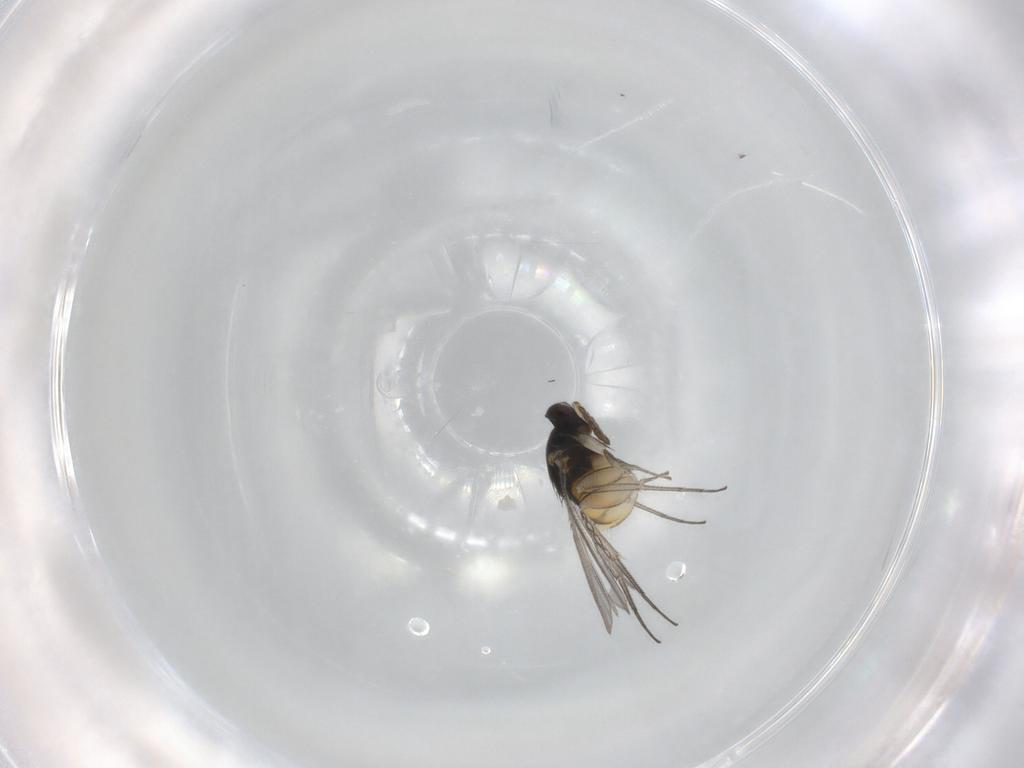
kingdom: Animalia
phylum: Arthropoda
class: Insecta
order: Hymenoptera
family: Eulophidae
